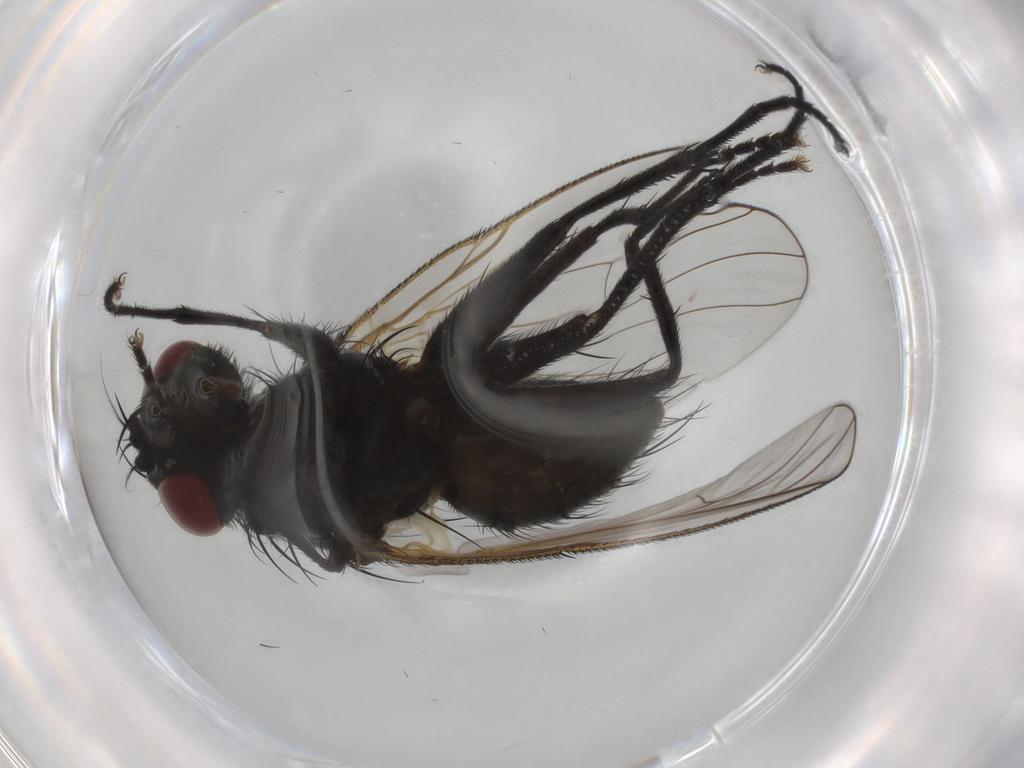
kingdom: Animalia
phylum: Arthropoda
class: Insecta
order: Diptera
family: Muscidae
